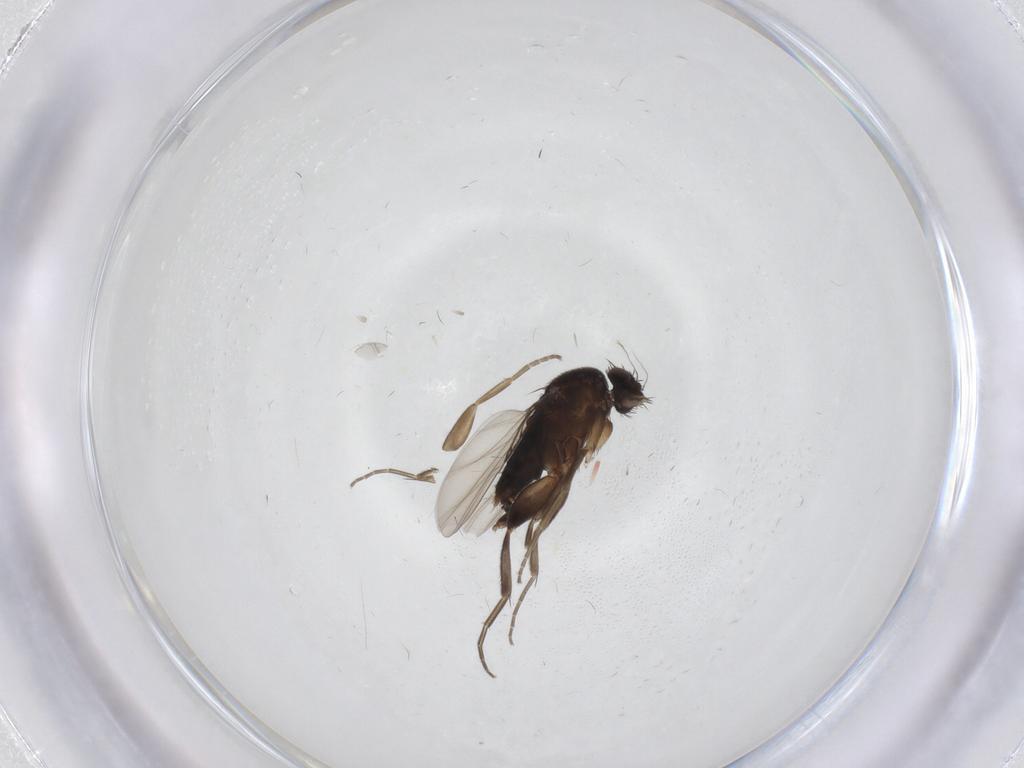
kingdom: Animalia
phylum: Arthropoda
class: Insecta
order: Diptera
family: Phoridae
